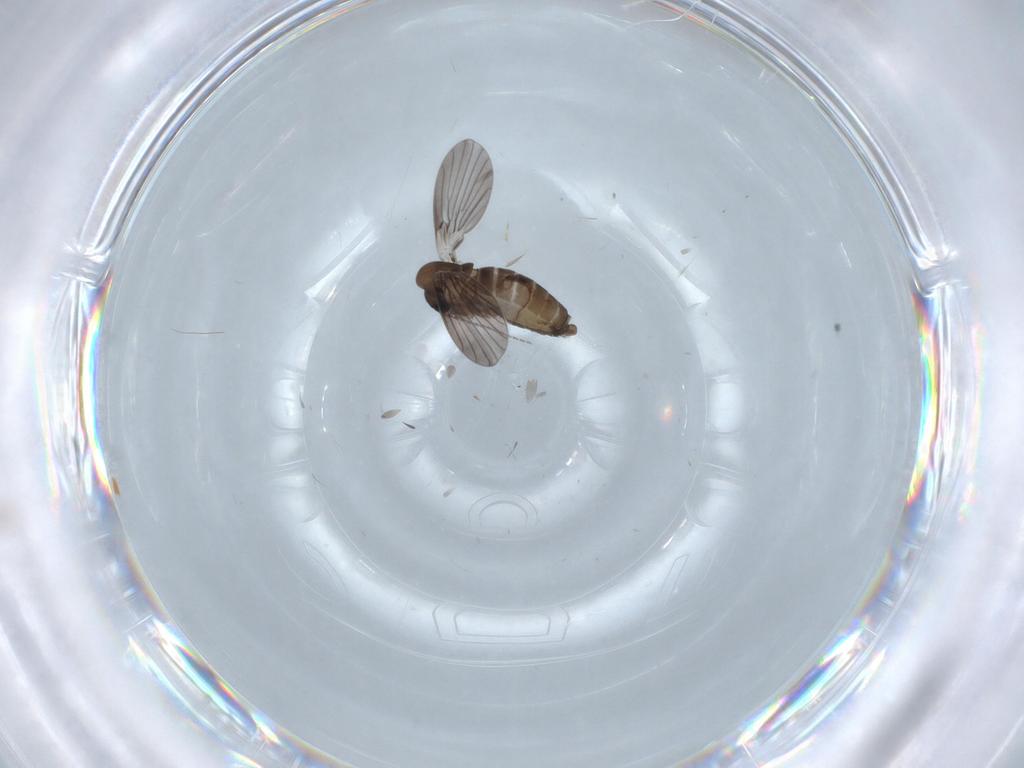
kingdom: Animalia
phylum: Arthropoda
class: Insecta
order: Diptera
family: Psychodidae
